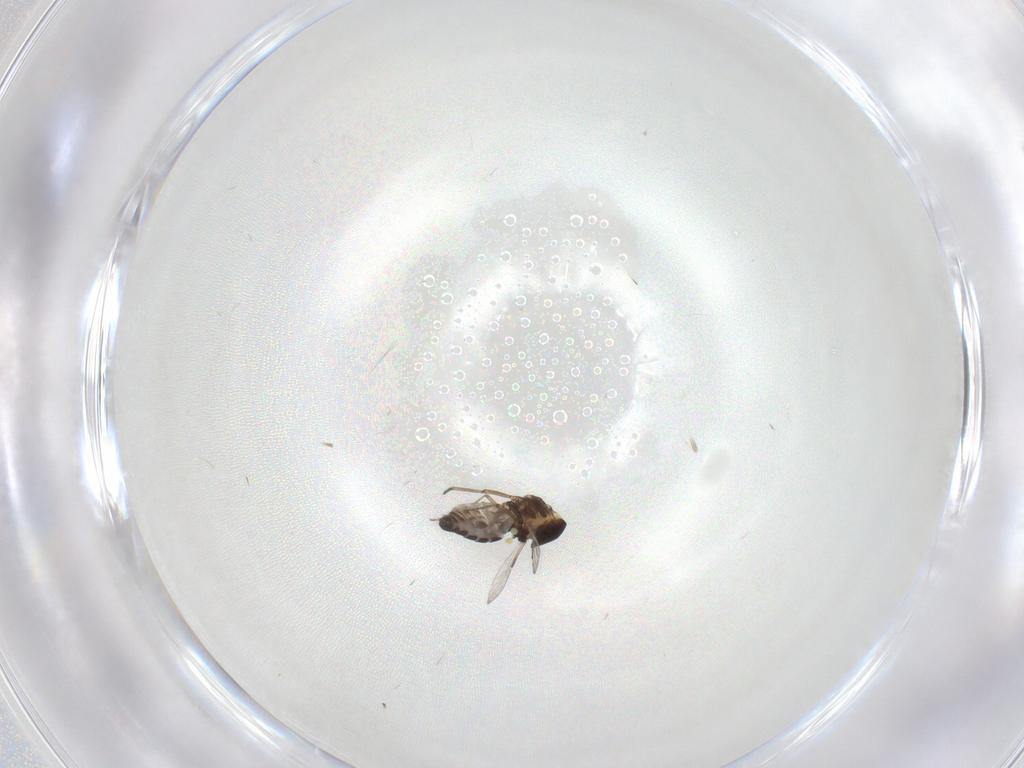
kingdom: Animalia
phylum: Arthropoda
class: Insecta
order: Diptera
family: Ceratopogonidae
